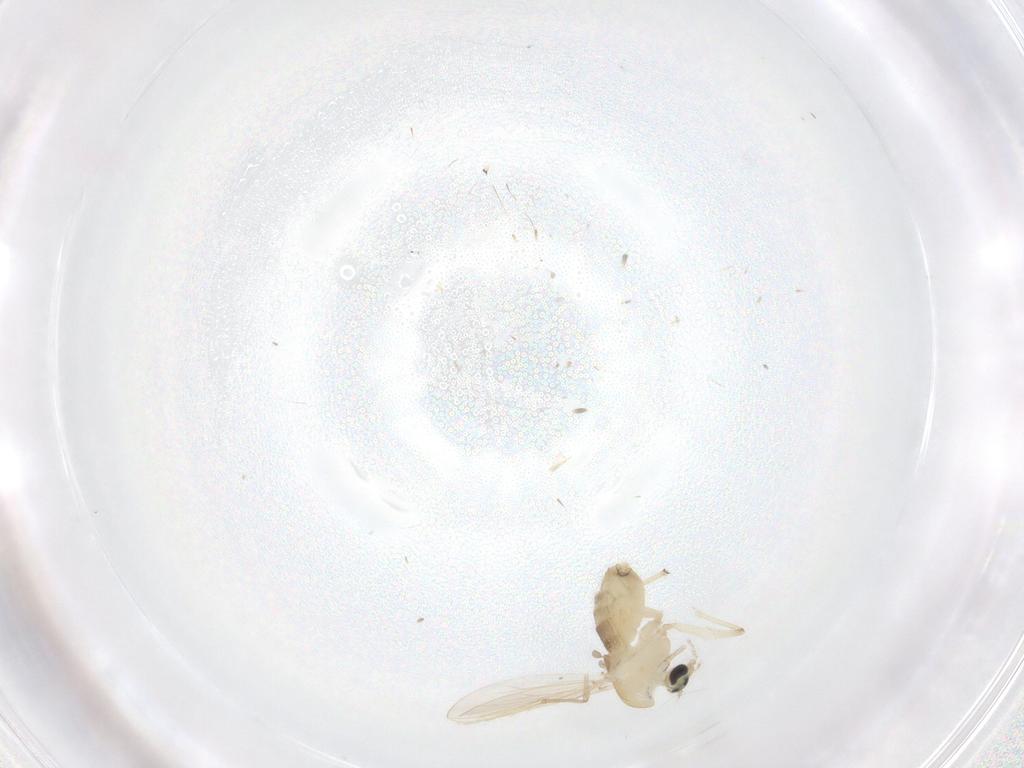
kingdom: Animalia
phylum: Arthropoda
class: Insecta
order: Diptera
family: Chironomidae
